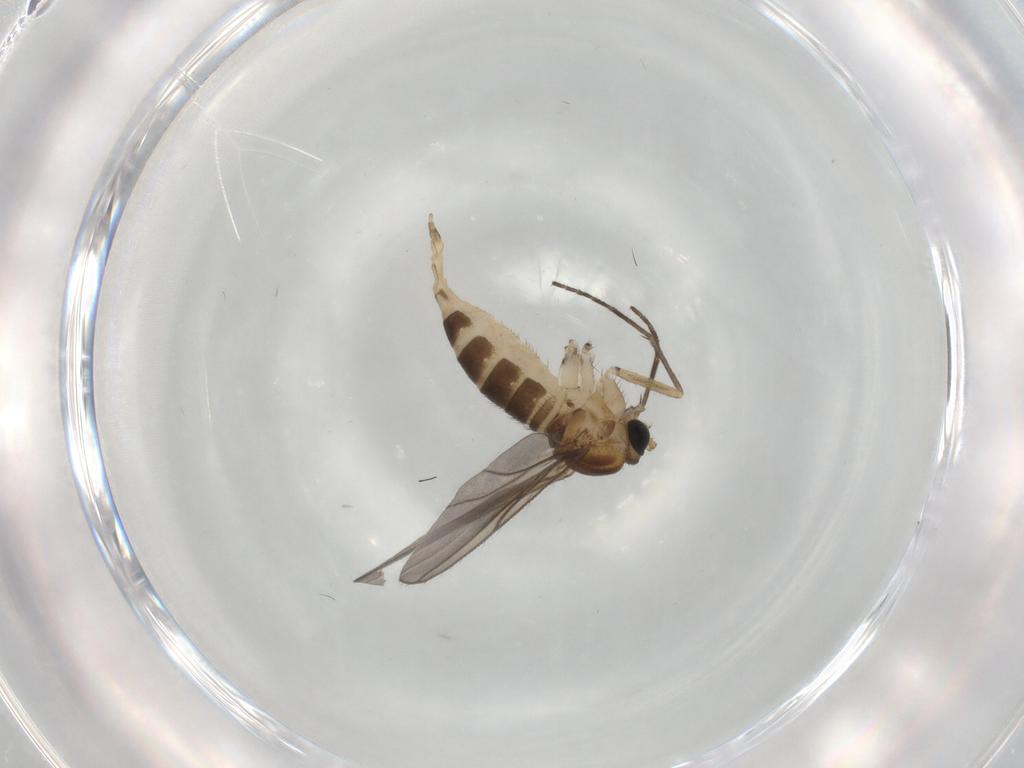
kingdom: Animalia
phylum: Arthropoda
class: Insecta
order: Diptera
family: Sciaridae
